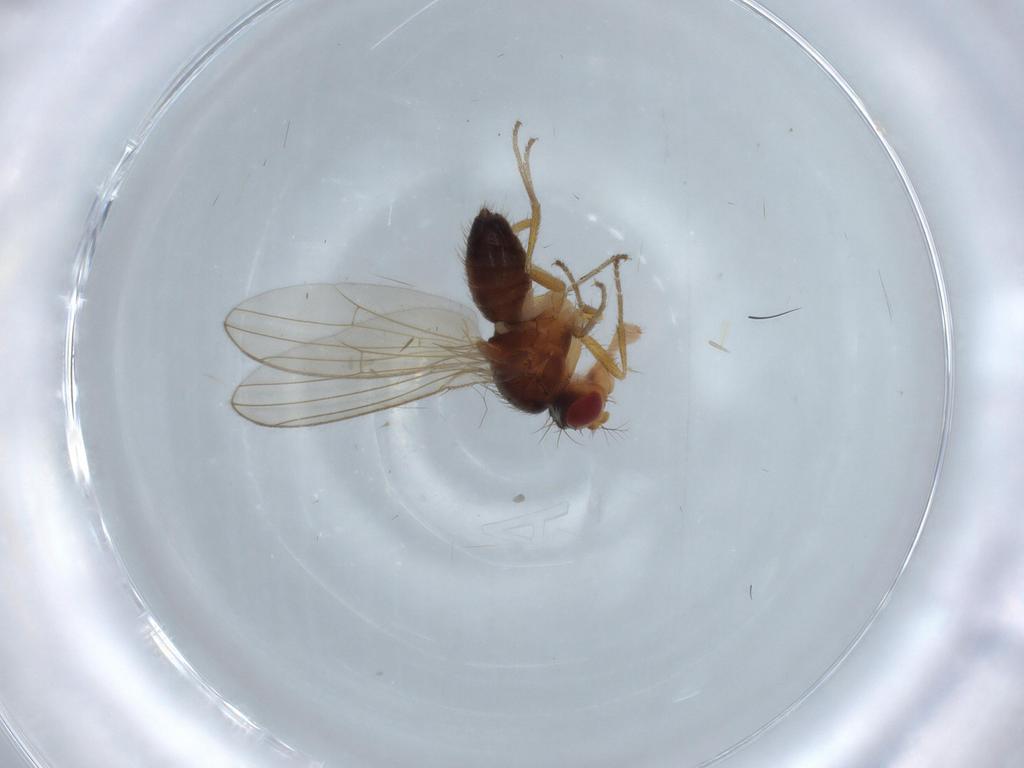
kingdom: Animalia
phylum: Arthropoda
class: Insecta
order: Diptera
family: Drosophilidae
